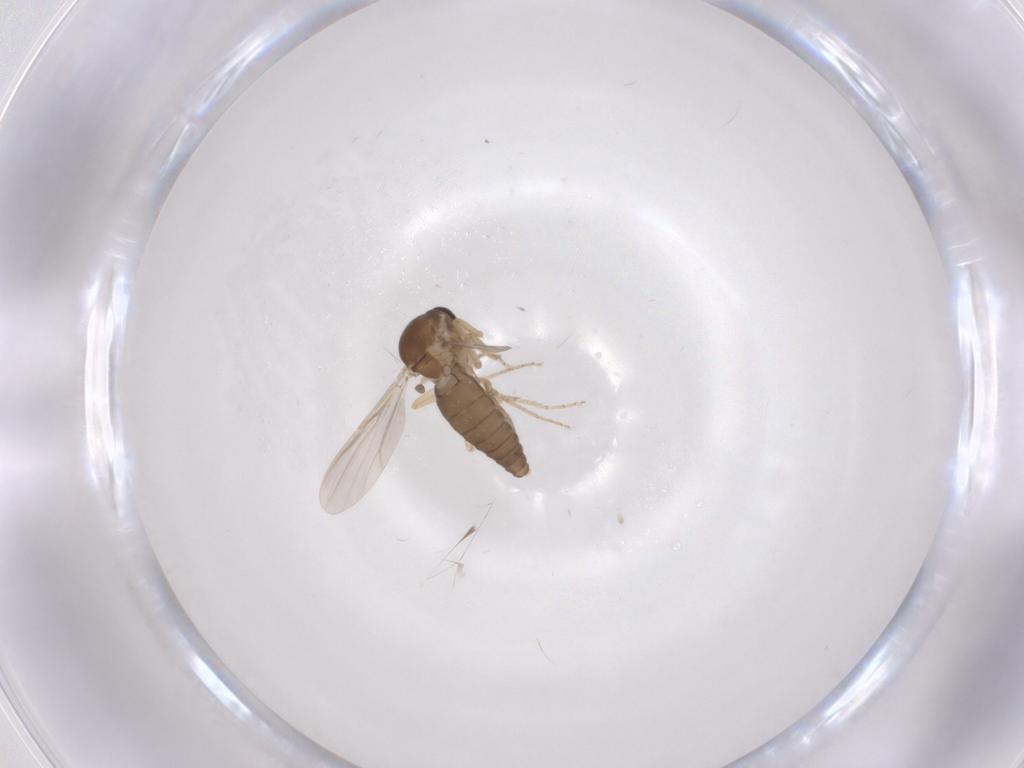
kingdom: Animalia
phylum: Arthropoda
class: Insecta
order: Diptera
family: Ceratopogonidae
